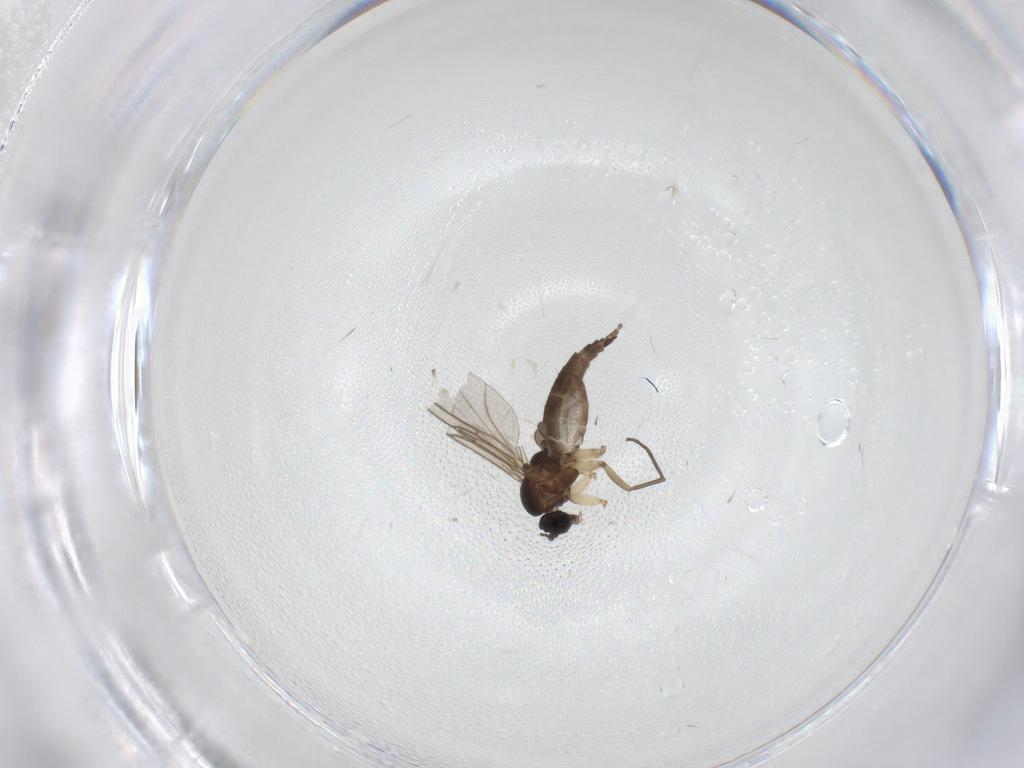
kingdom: Animalia
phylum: Arthropoda
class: Insecta
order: Diptera
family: Sciaridae
